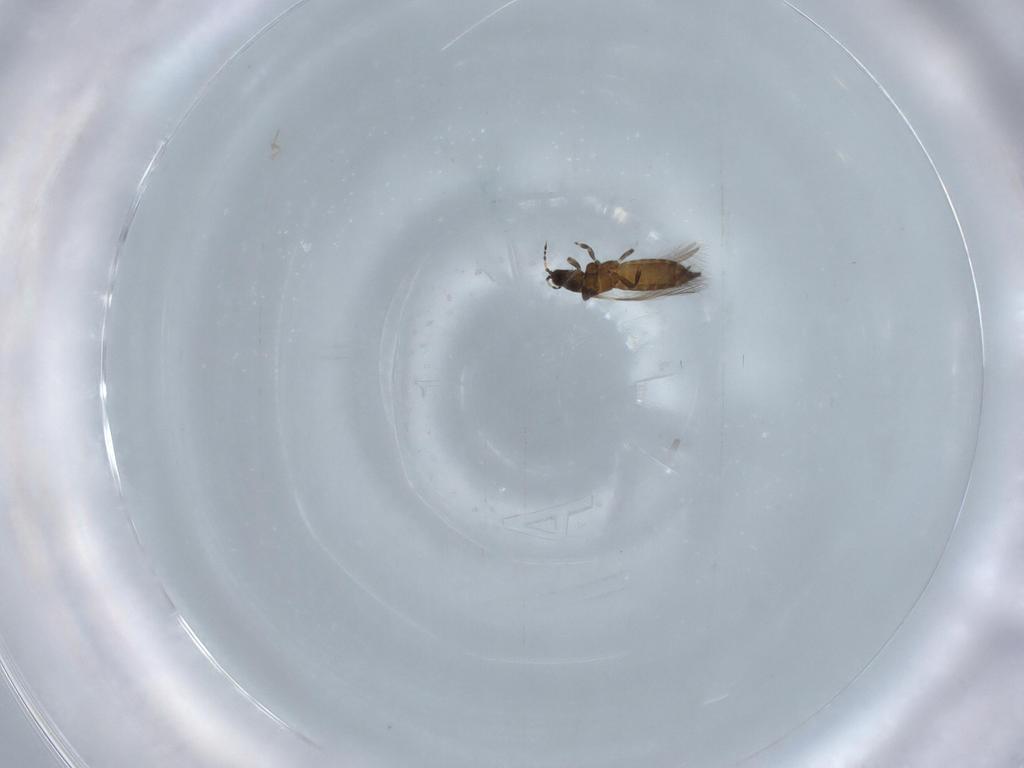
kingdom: Animalia
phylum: Arthropoda
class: Insecta
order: Thysanoptera
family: Thripidae
